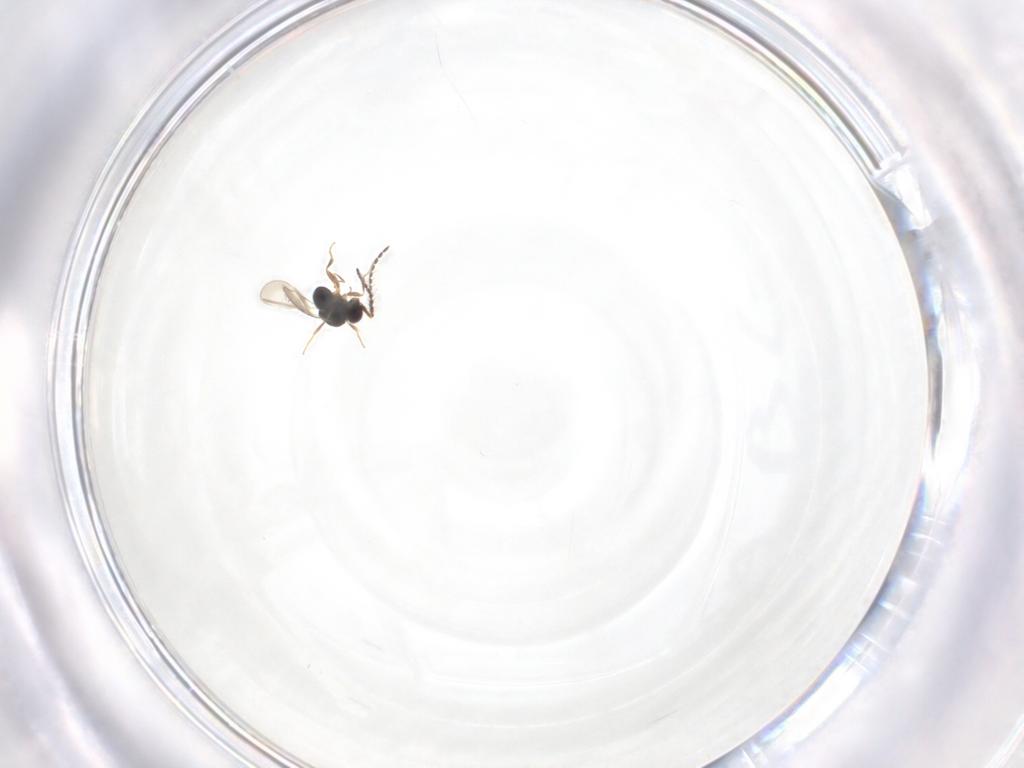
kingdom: Animalia
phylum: Arthropoda
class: Insecta
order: Hymenoptera
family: Ceraphronidae
